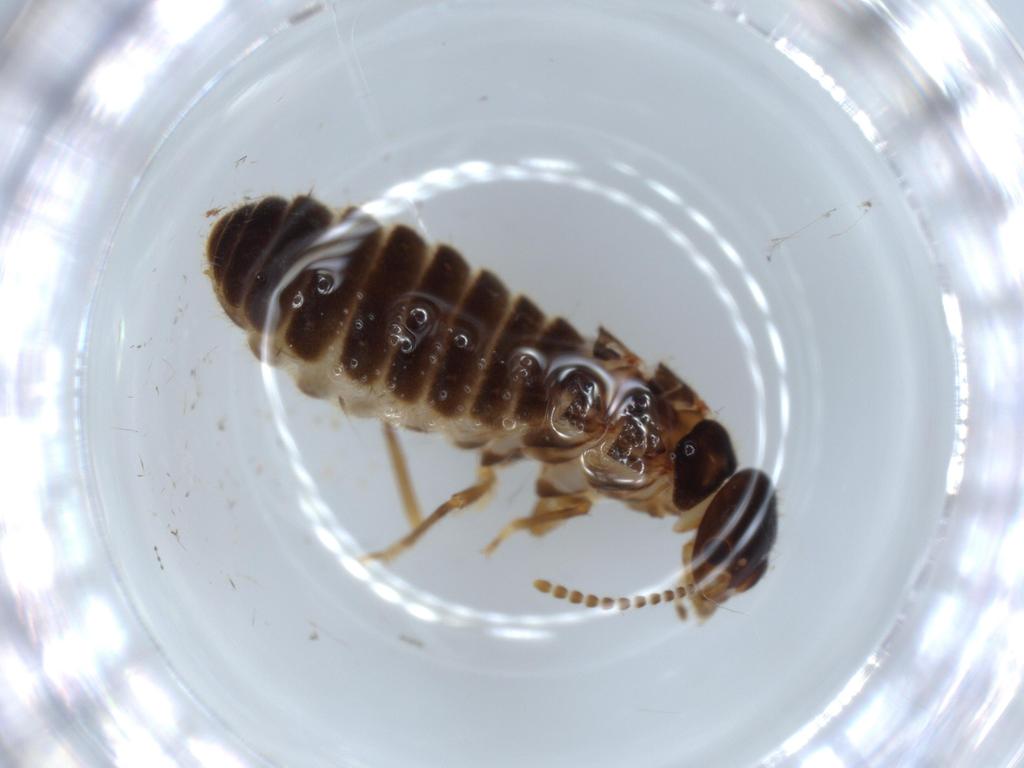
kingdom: Animalia
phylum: Arthropoda
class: Insecta
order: Blattodea
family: Termitidae
